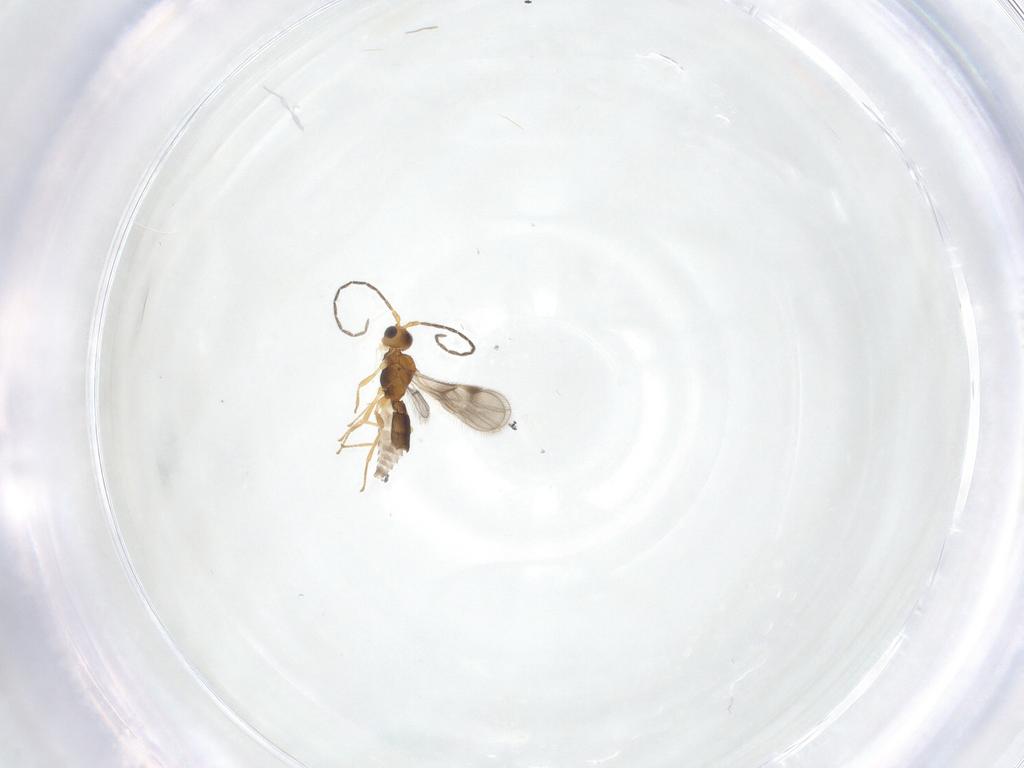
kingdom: Animalia
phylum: Arthropoda
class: Insecta
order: Hymenoptera
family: Braconidae
